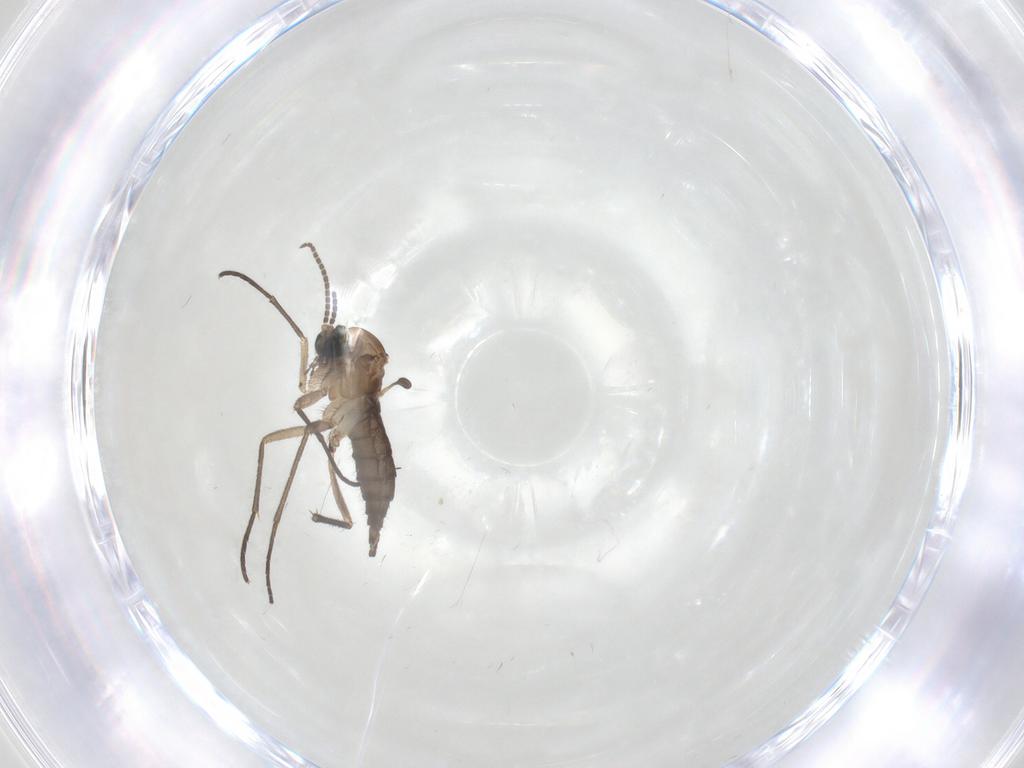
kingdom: Animalia
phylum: Arthropoda
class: Insecta
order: Diptera
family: Sciaridae
